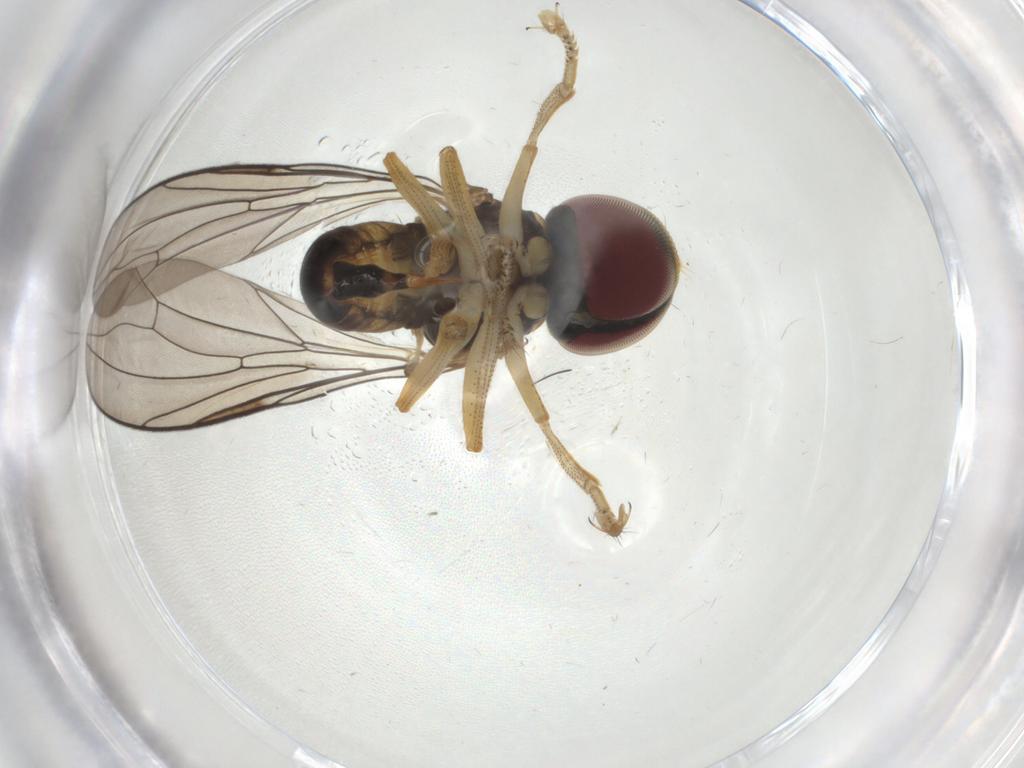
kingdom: Animalia
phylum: Arthropoda
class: Insecta
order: Diptera
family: Pipunculidae
